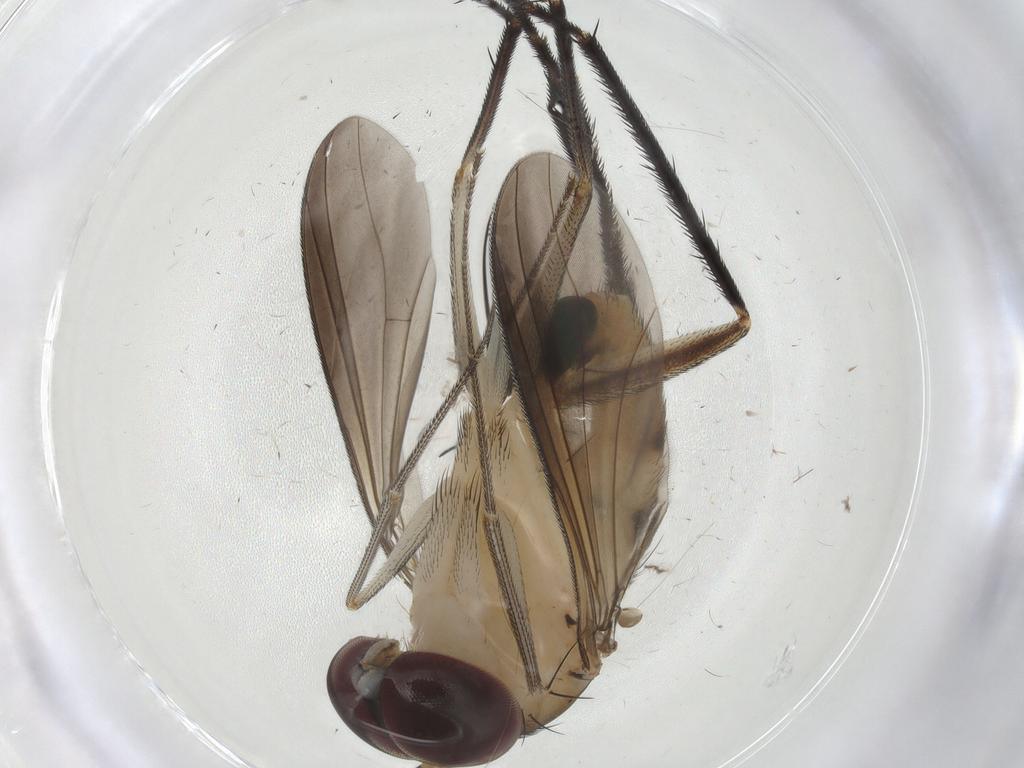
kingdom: Animalia
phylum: Arthropoda
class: Insecta
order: Diptera
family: Dolichopodidae
